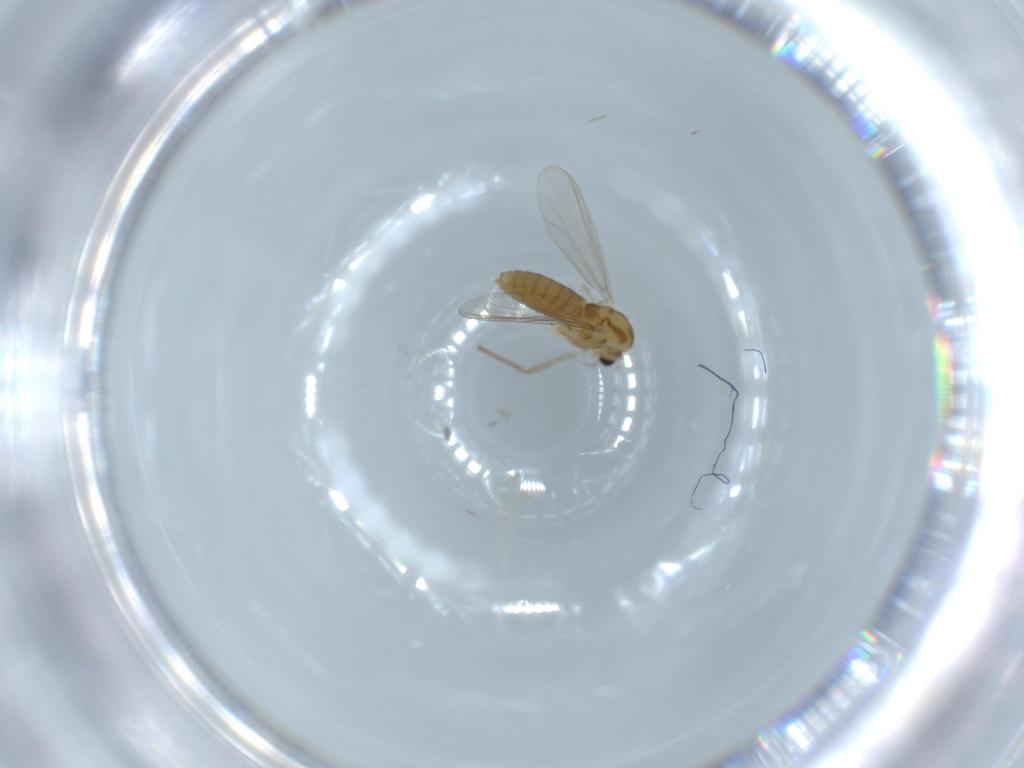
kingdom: Animalia
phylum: Arthropoda
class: Insecta
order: Diptera
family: Chironomidae
